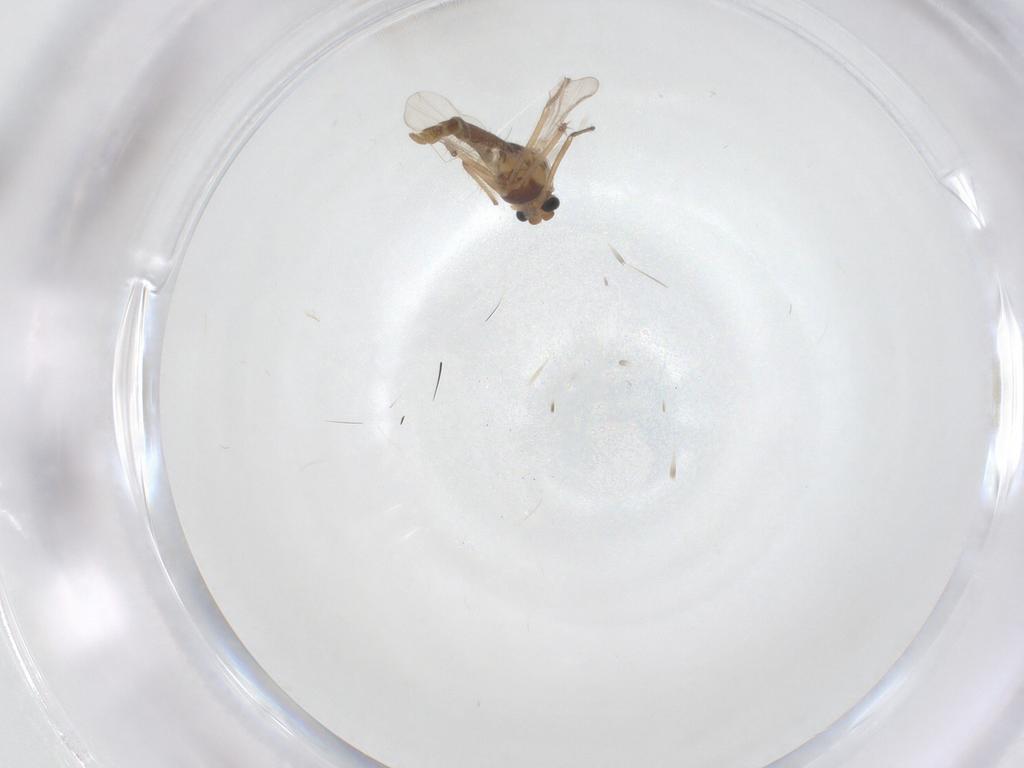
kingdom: Animalia
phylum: Arthropoda
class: Insecta
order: Diptera
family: Chironomidae
